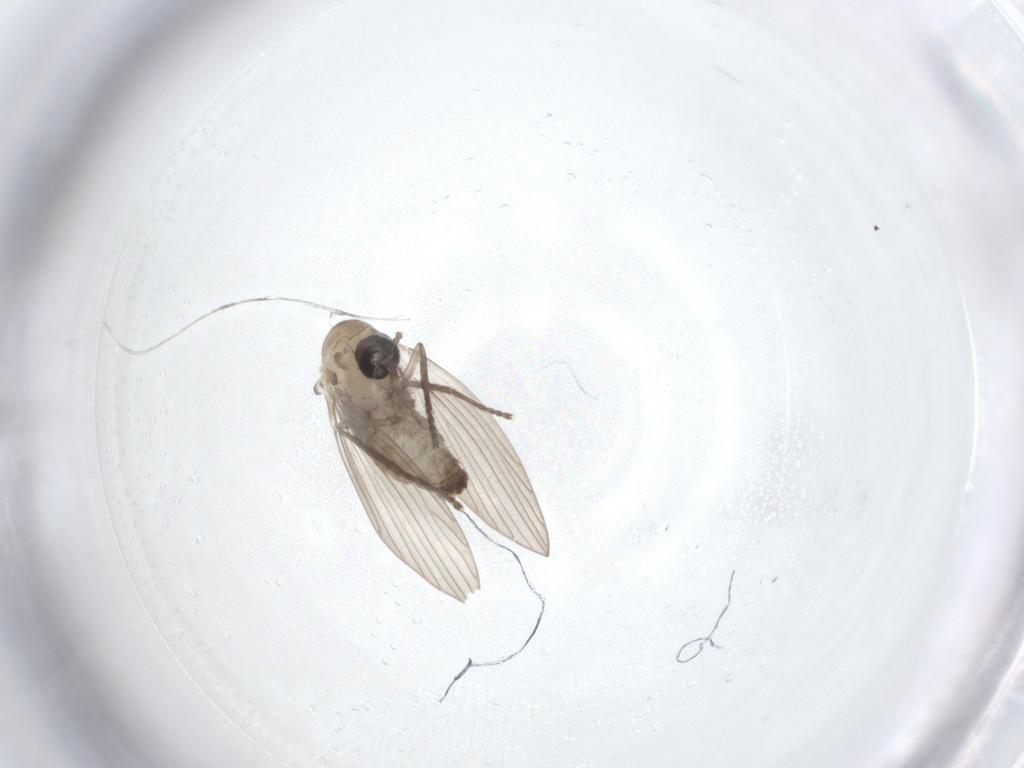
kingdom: Animalia
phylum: Arthropoda
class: Insecta
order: Diptera
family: Psychodidae
